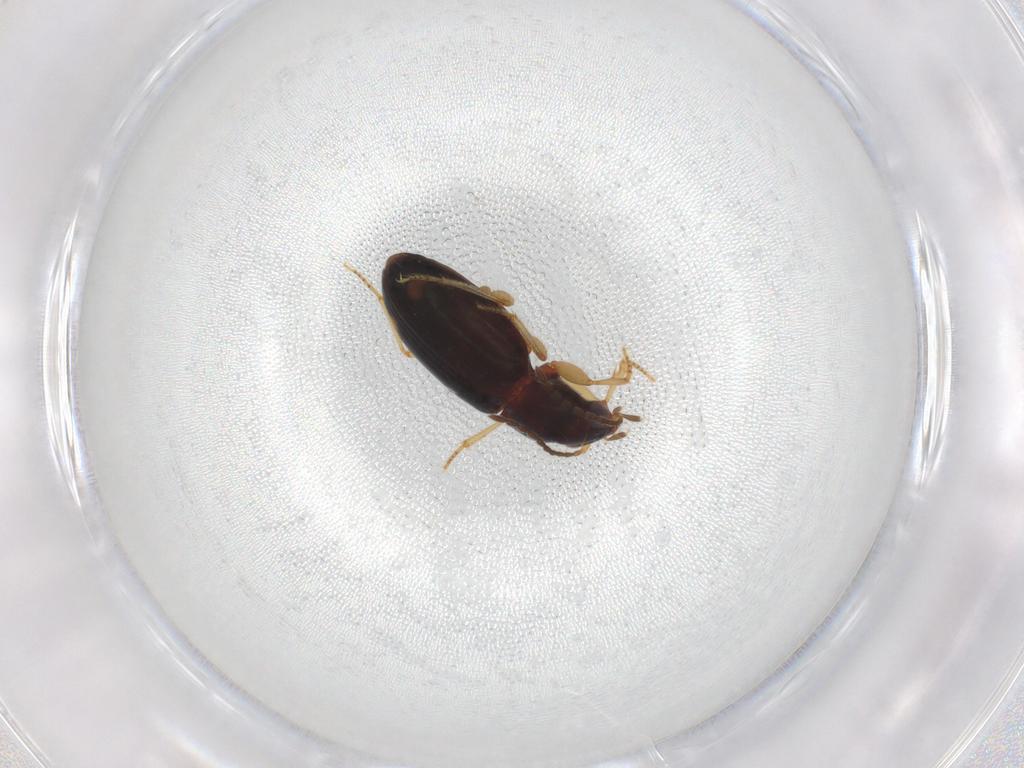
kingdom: Animalia
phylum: Arthropoda
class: Insecta
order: Coleoptera
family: Carabidae
